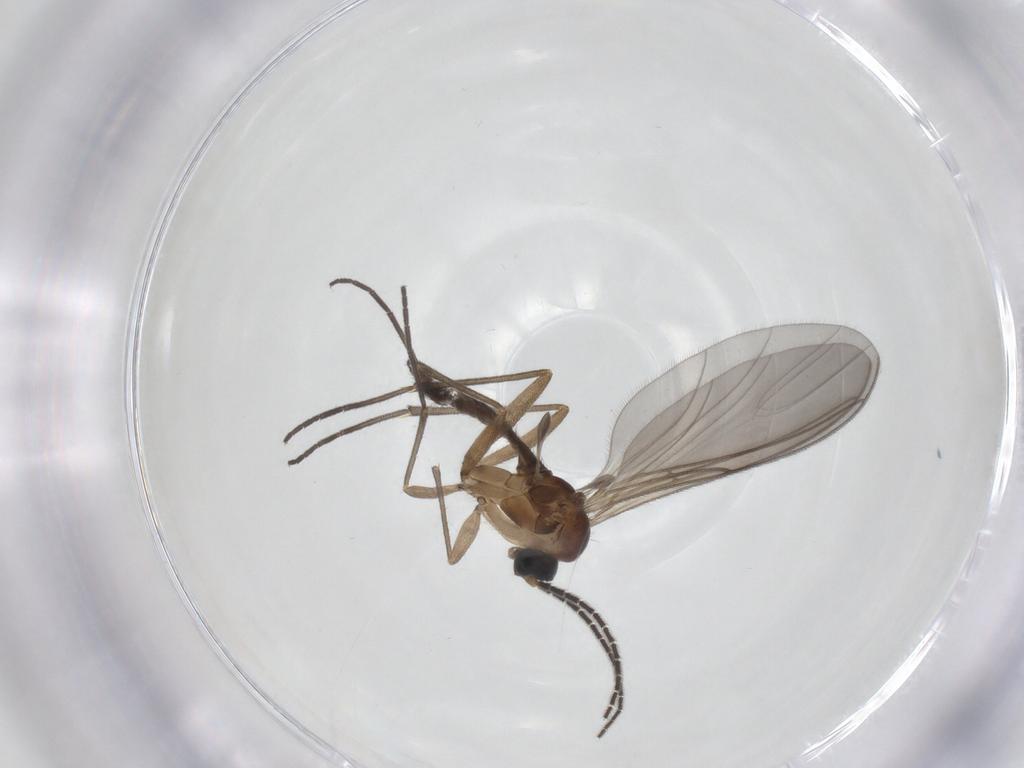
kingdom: Animalia
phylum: Arthropoda
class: Insecta
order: Diptera
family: Sciaridae
